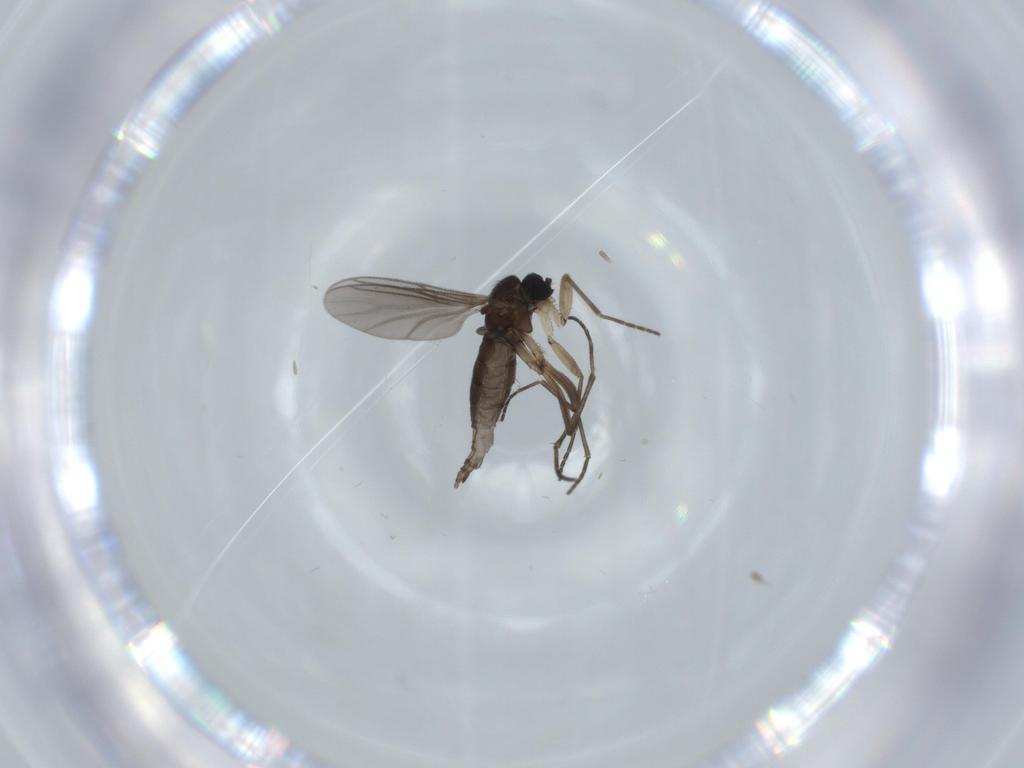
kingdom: Animalia
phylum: Arthropoda
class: Insecta
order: Diptera
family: Sciaridae
